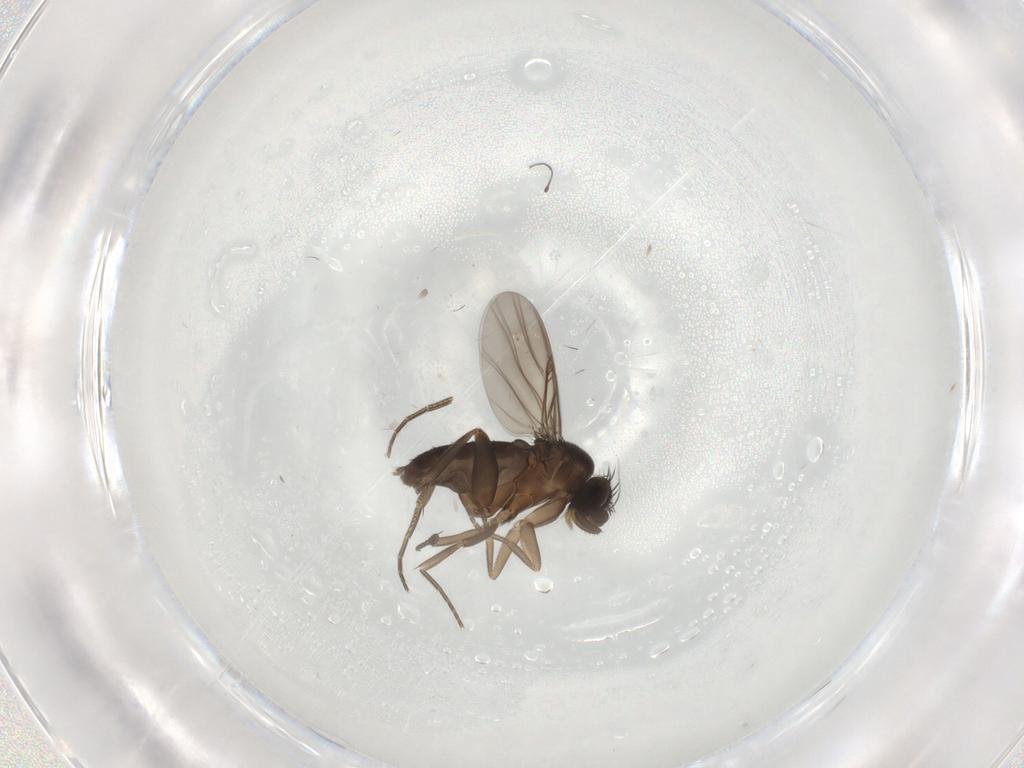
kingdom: Animalia
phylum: Arthropoda
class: Insecta
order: Diptera
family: Phoridae
